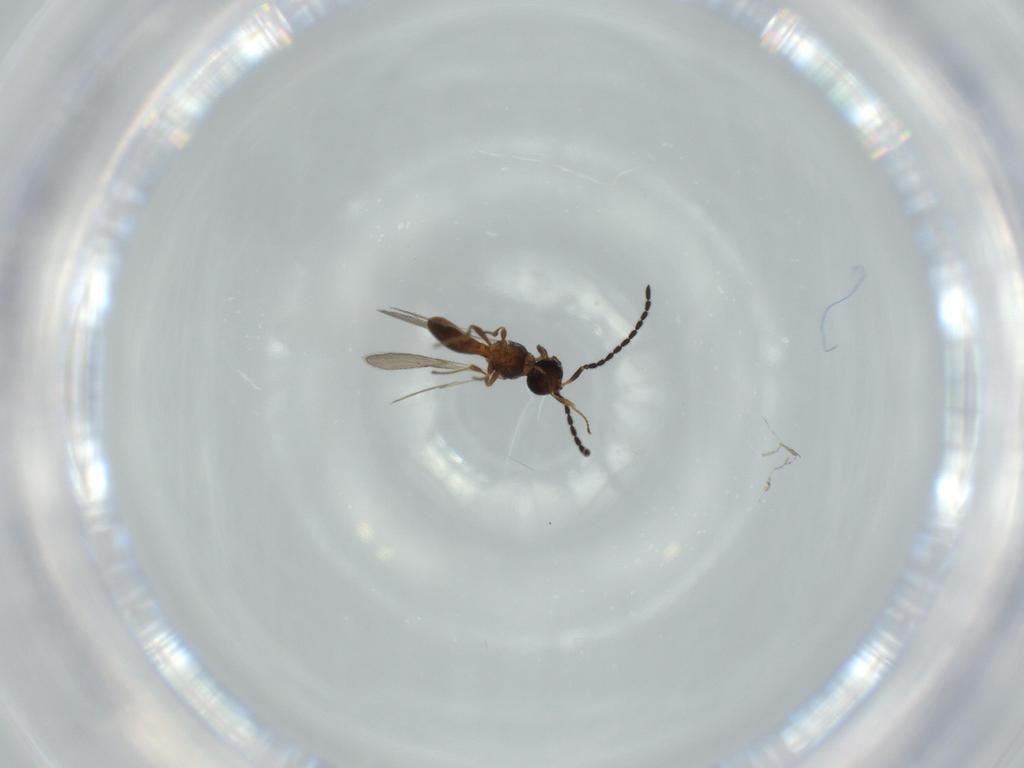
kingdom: Animalia
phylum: Arthropoda
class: Insecta
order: Hymenoptera
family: Scelionidae
